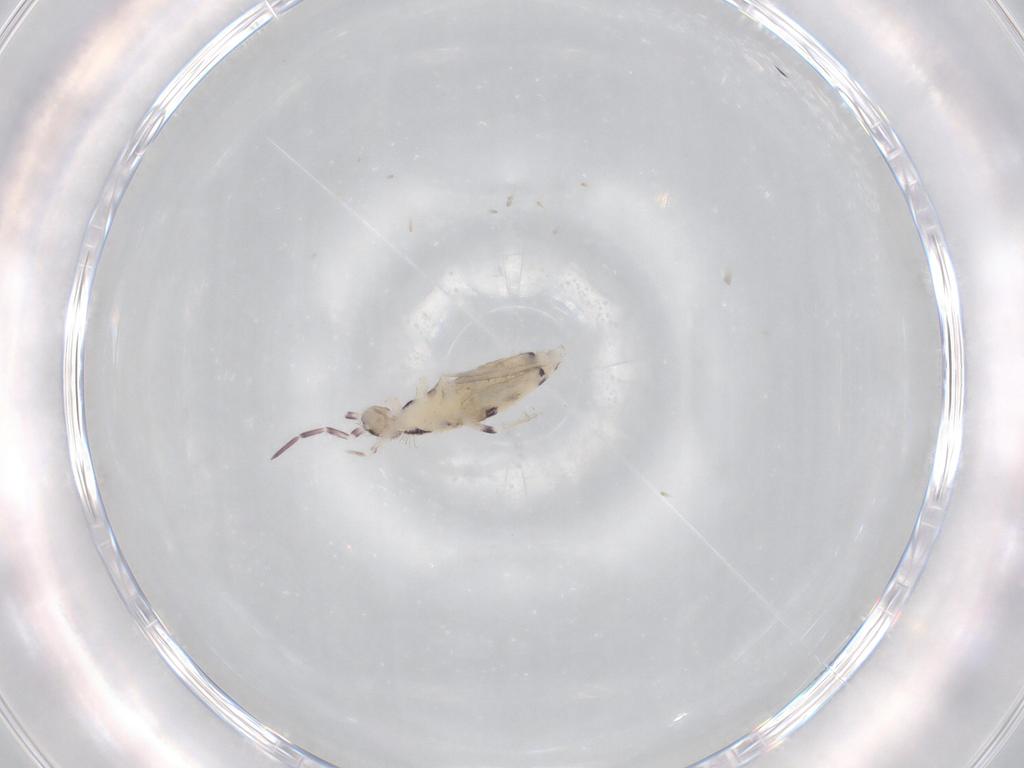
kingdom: Animalia
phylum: Arthropoda
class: Collembola
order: Poduromorpha
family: Hypogastruridae
